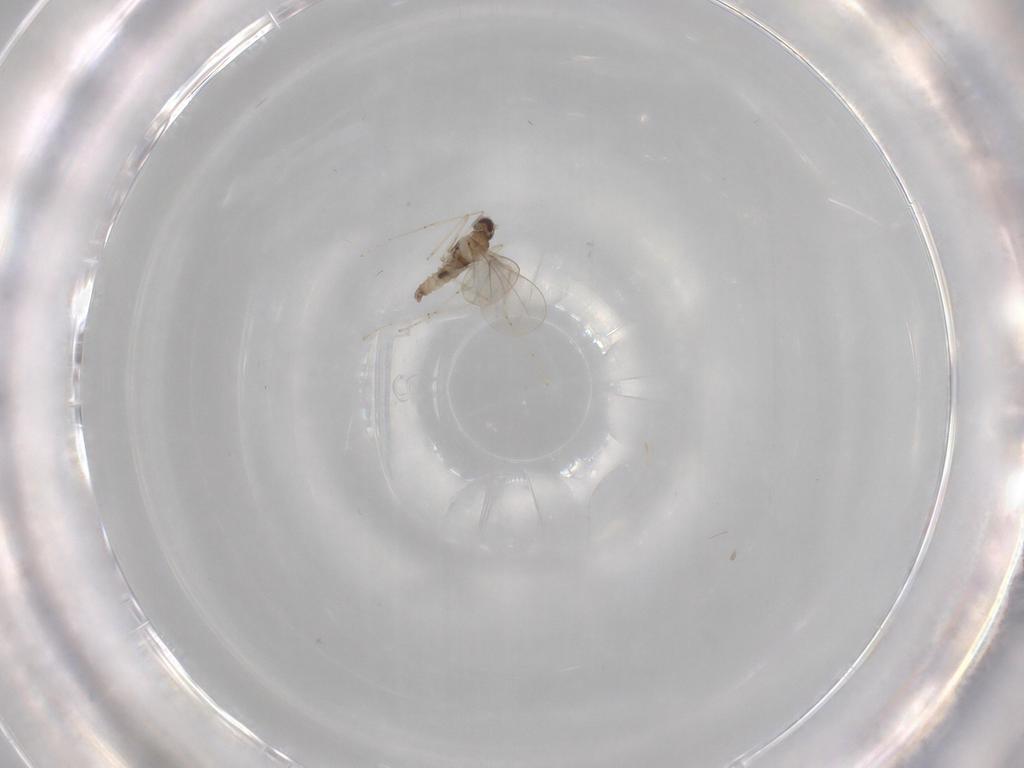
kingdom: Animalia
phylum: Arthropoda
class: Insecta
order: Diptera
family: Cecidomyiidae
